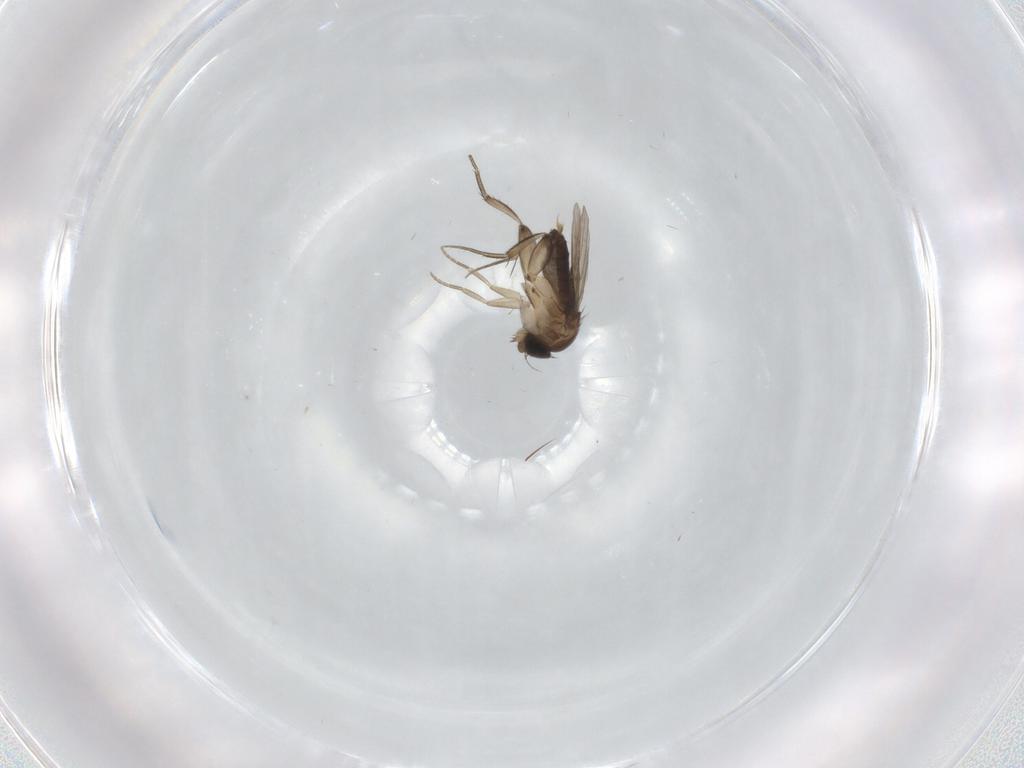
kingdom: Animalia
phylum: Arthropoda
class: Insecta
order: Diptera
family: Phoridae
